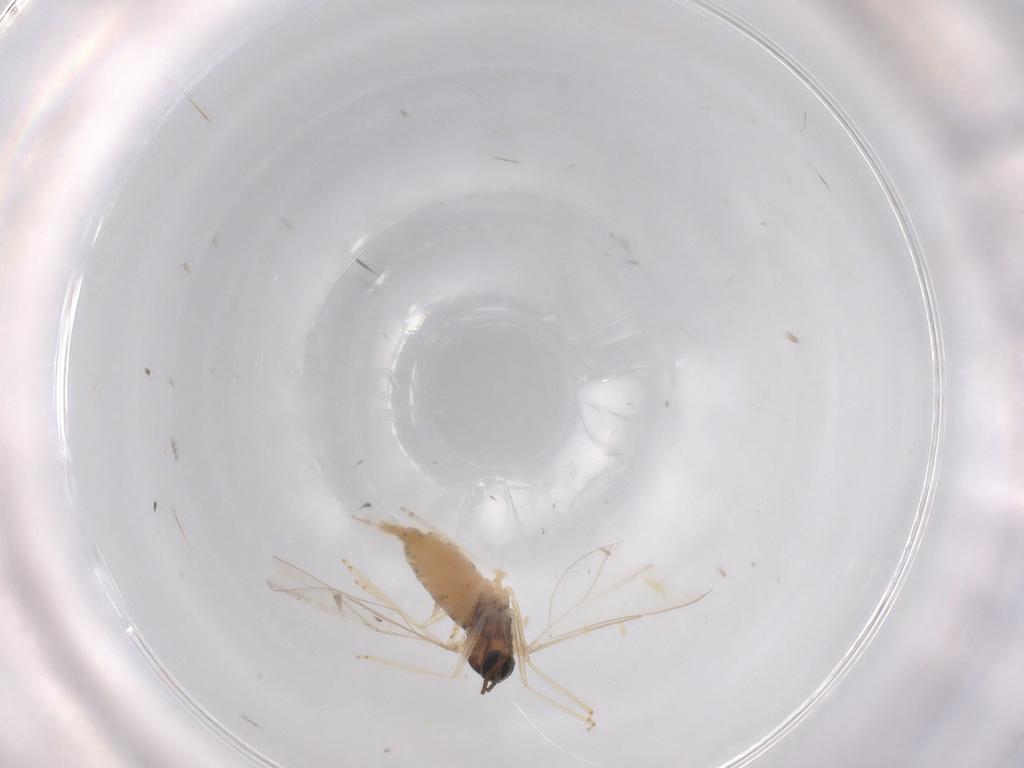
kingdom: Animalia
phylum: Arthropoda
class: Insecta
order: Diptera
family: Cecidomyiidae
